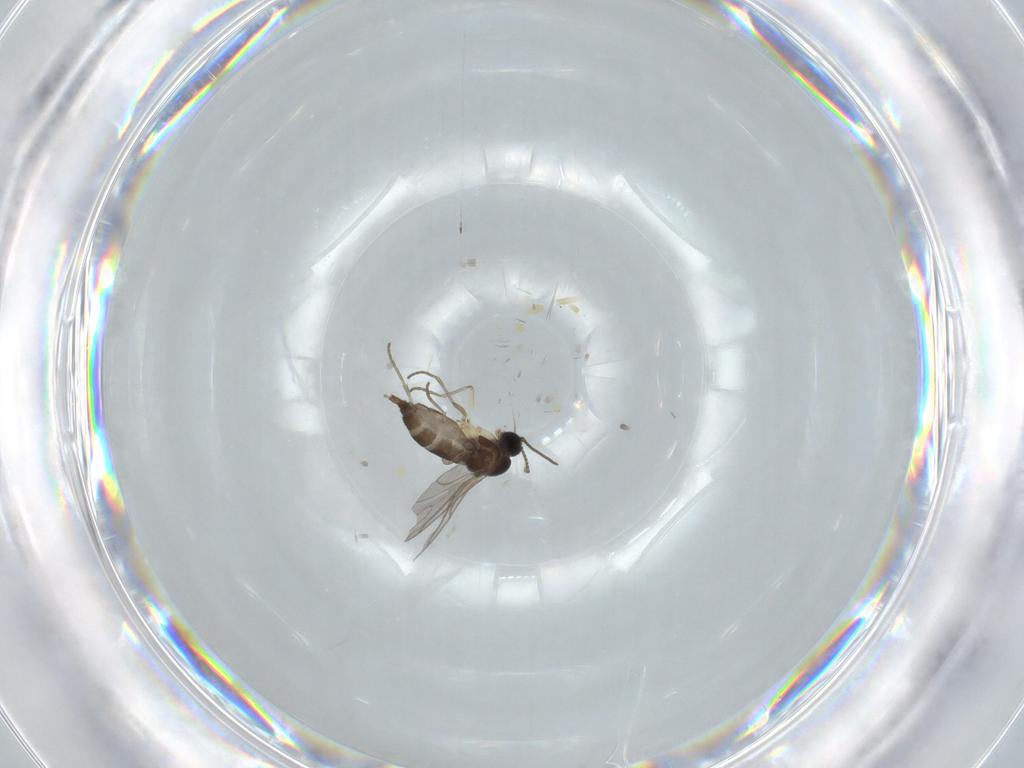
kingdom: Animalia
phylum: Arthropoda
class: Insecta
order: Diptera
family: Sciaridae
